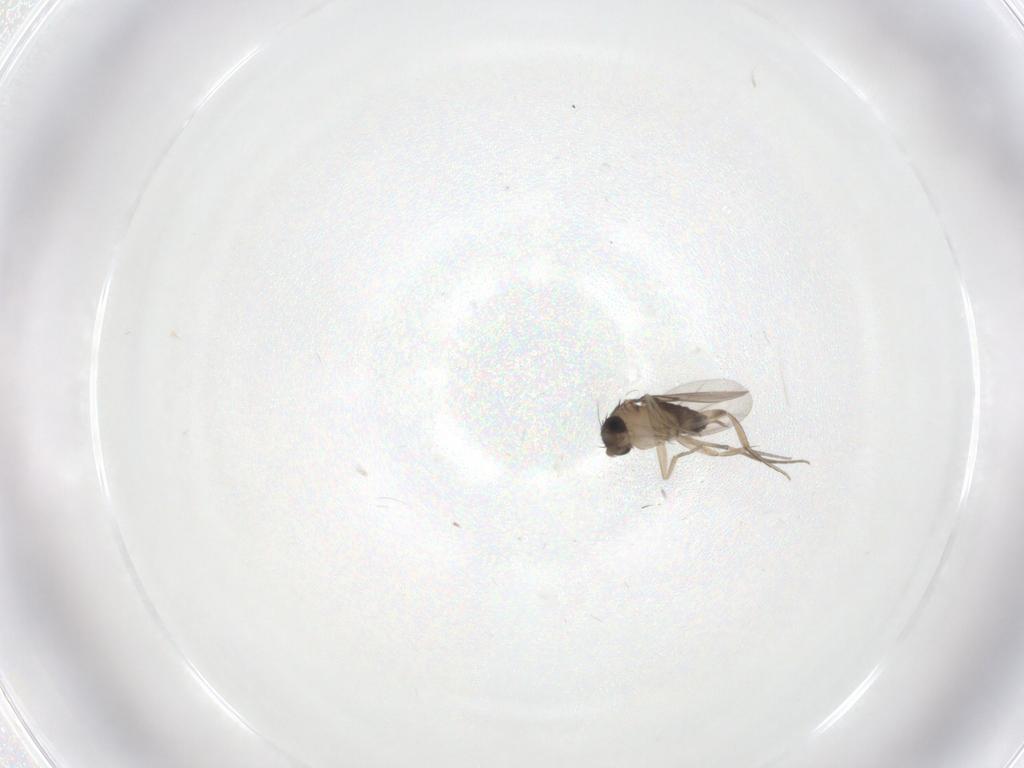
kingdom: Animalia
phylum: Arthropoda
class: Insecta
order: Diptera
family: Phoridae
